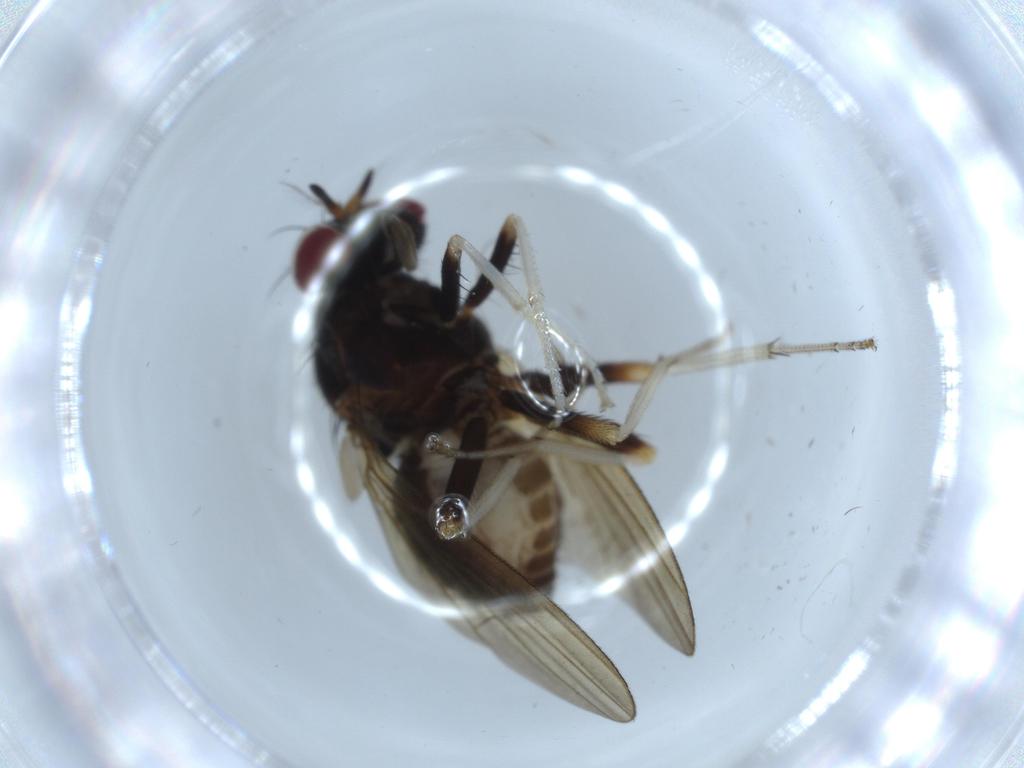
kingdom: Animalia
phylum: Arthropoda
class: Insecta
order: Diptera
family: Chironomidae
